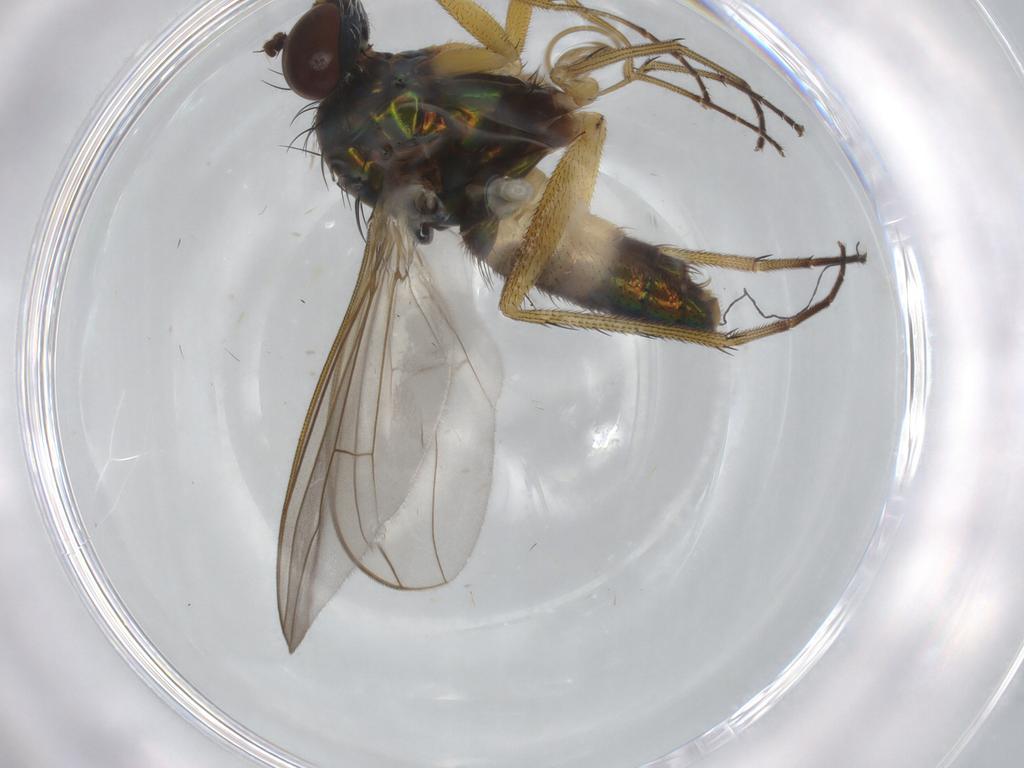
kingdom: Animalia
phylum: Arthropoda
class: Insecta
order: Diptera
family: Dolichopodidae
